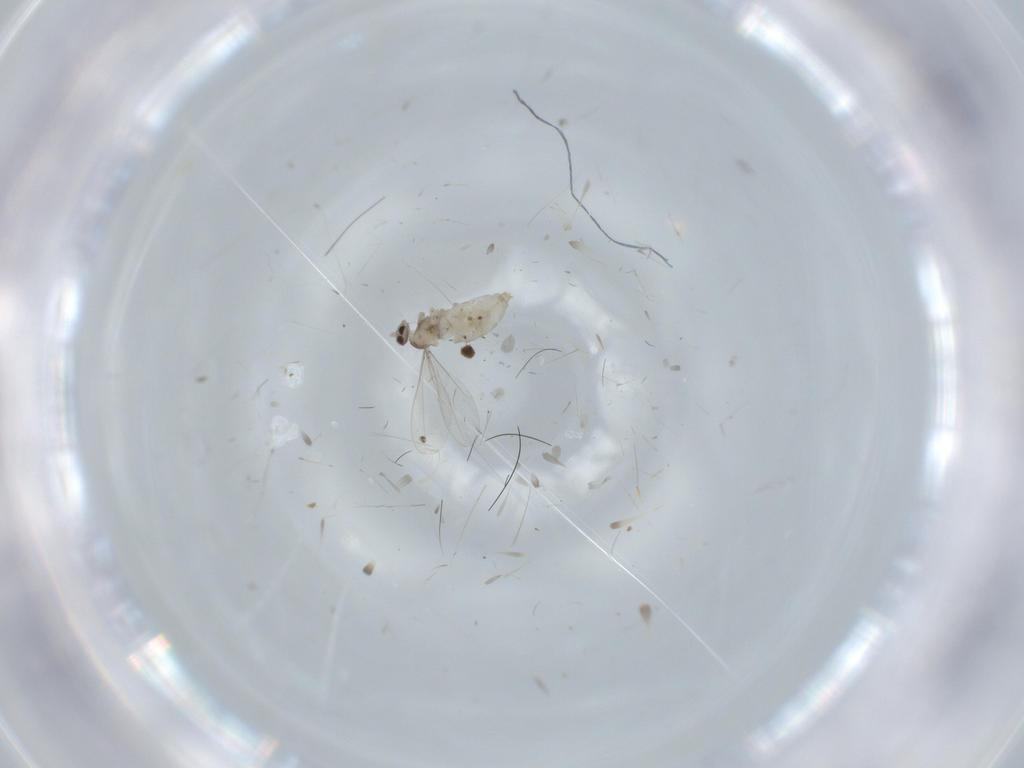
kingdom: Animalia
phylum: Arthropoda
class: Insecta
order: Diptera
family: Cecidomyiidae
